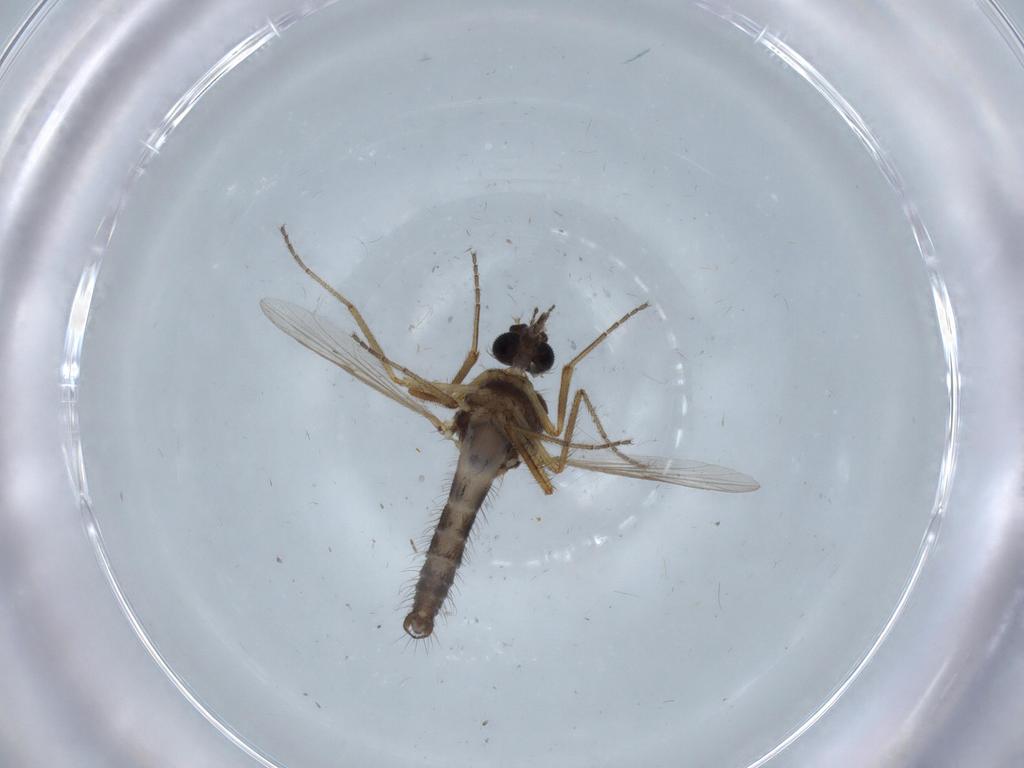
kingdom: Animalia
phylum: Arthropoda
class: Insecta
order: Diptera
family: Ceratopogonidae
